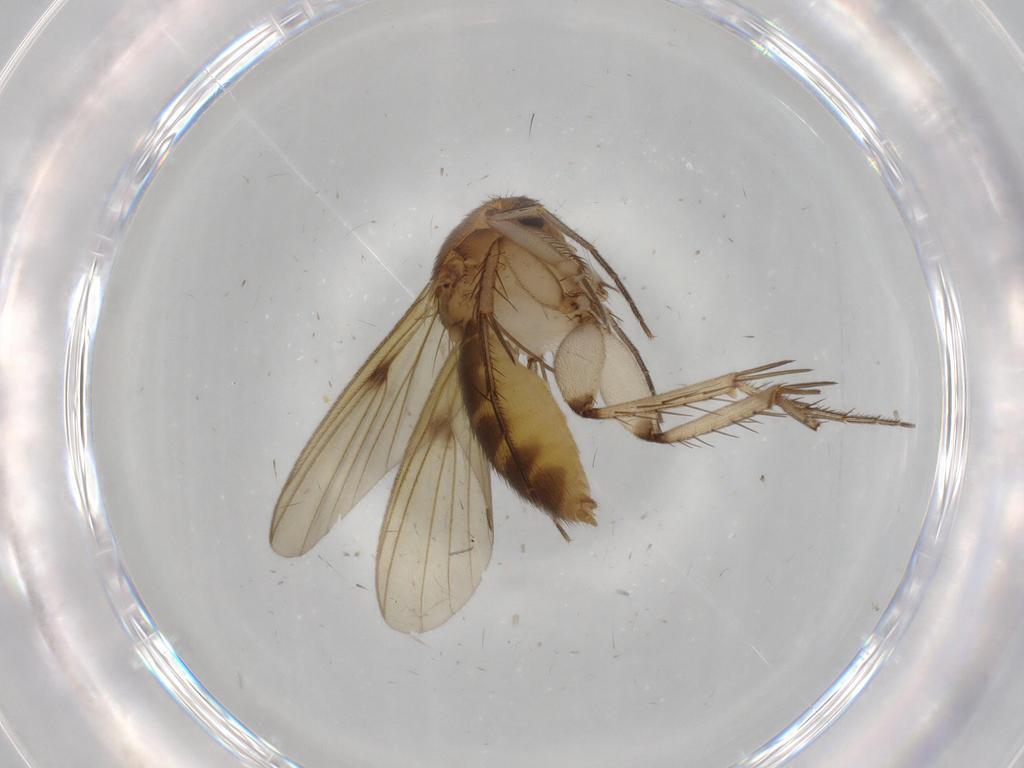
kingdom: Animalia
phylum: Arthropoda
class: Insecta
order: Diptera
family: Mycetophilidae
